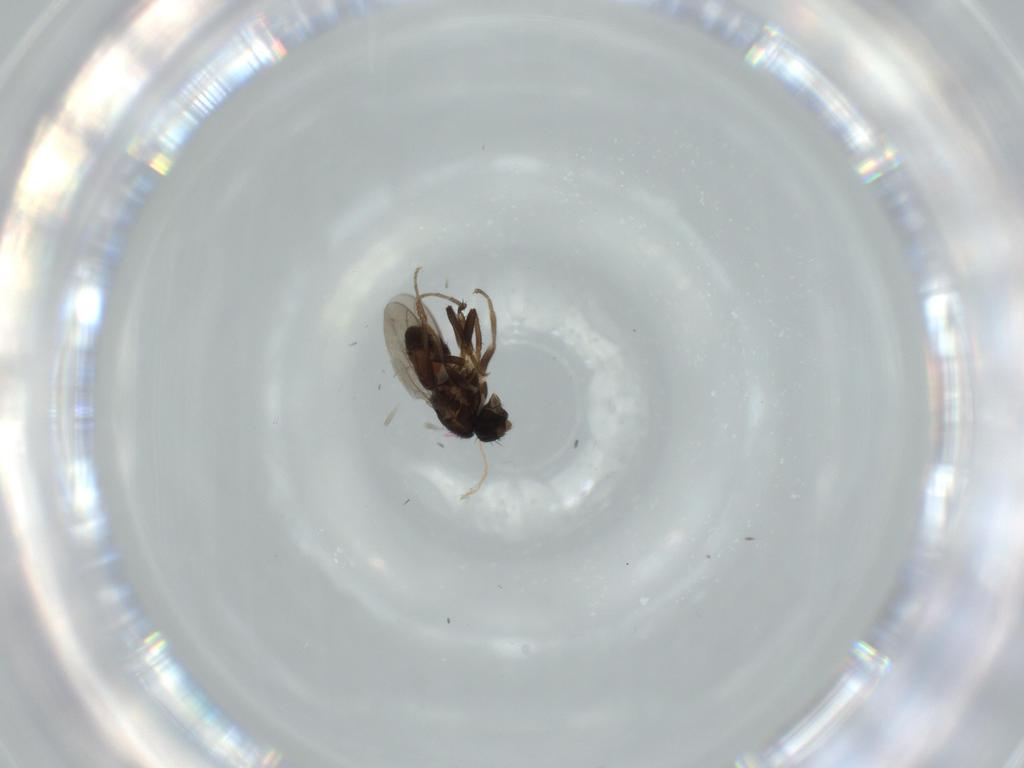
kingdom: Animalia
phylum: Arthropoda
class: Insecta
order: Diptera
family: Sphaeroceridae
